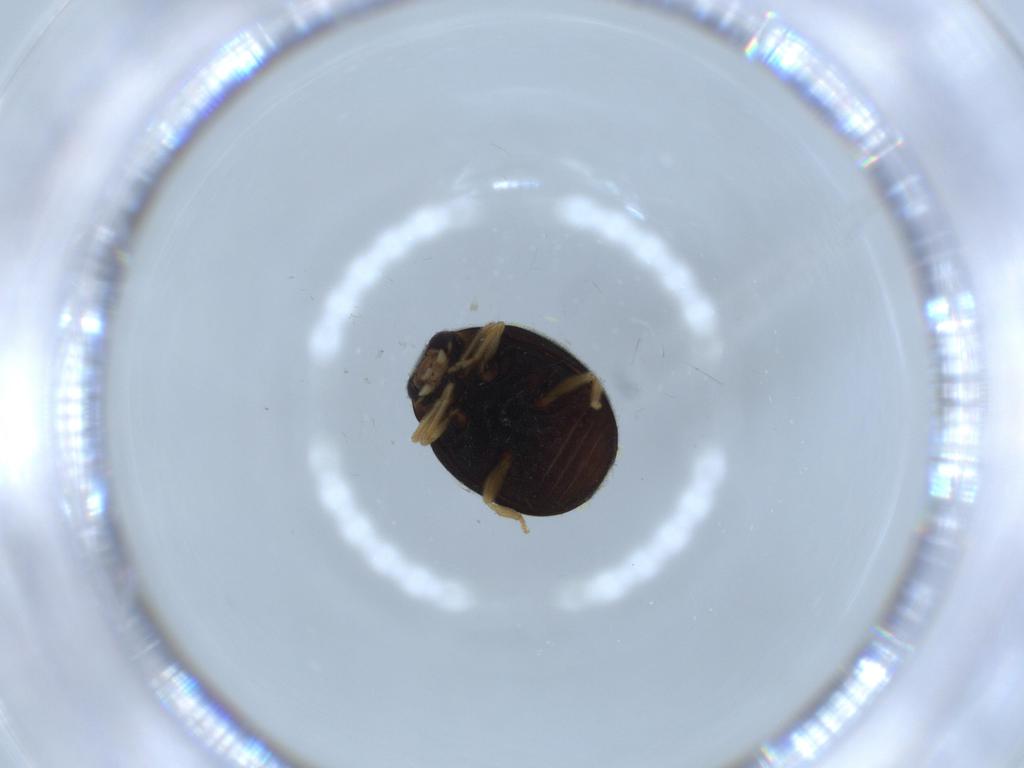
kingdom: Animalia
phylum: Arthropoda
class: Insecta
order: Coleoptera
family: Coccinellidae
